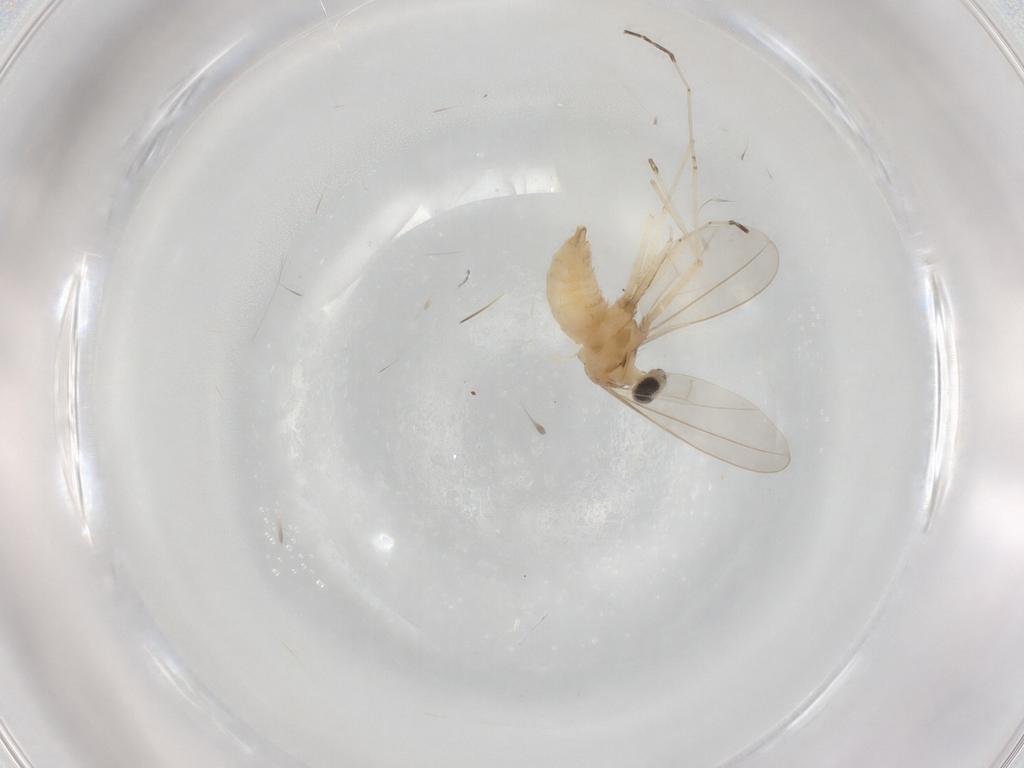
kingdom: Animalia
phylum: Arthropoda
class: Insecta
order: Diptera
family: Cecidomyiidae
